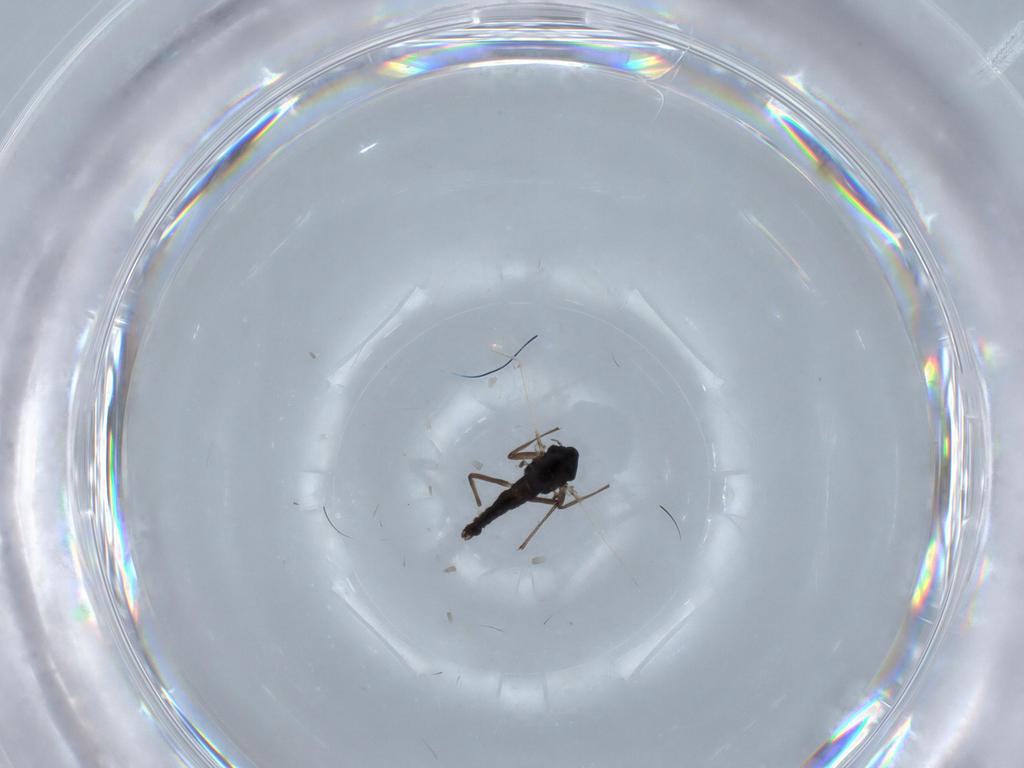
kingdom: Animalia
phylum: Arthropoda
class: Insecta
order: Diptera
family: Chironomidae
